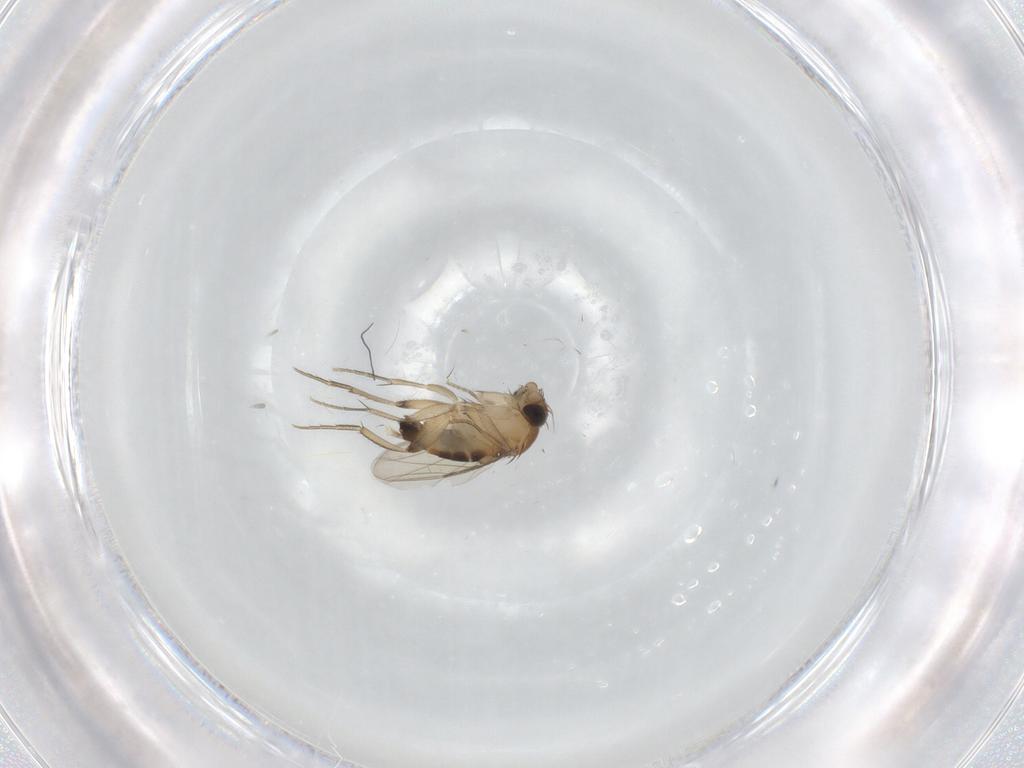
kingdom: Animalia
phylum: Arthropoda
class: Insecta
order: Diptera
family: Phoridae
